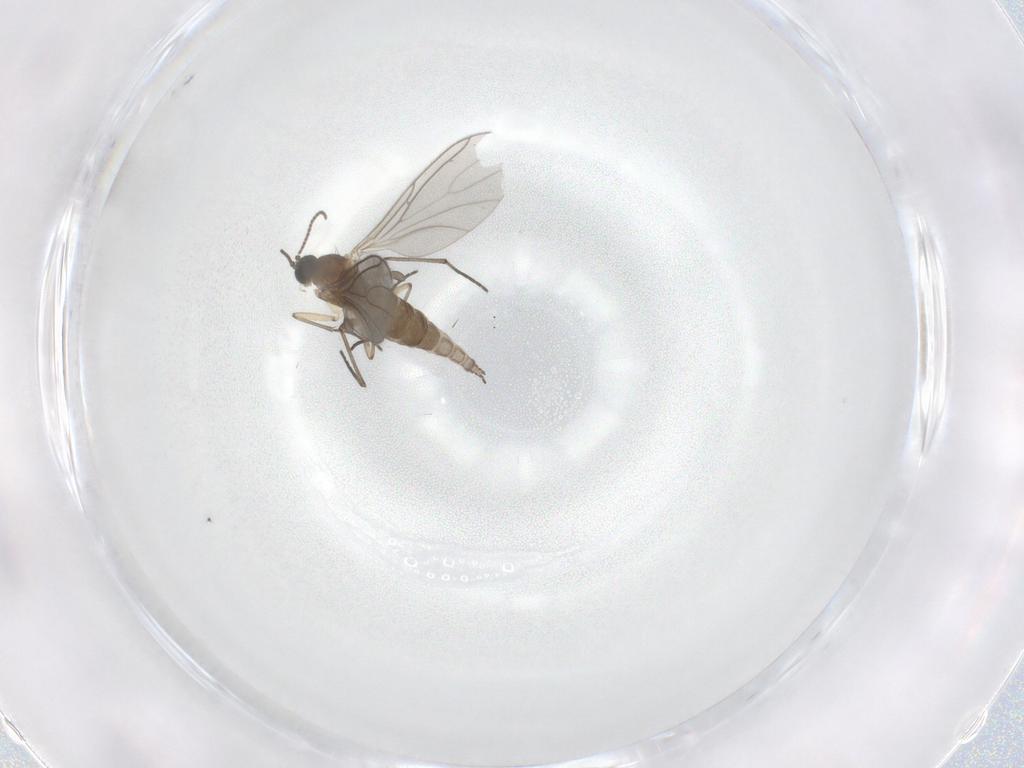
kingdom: Animalia
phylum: Arthropoda
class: Insecta
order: Diptera
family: Sciaridae
